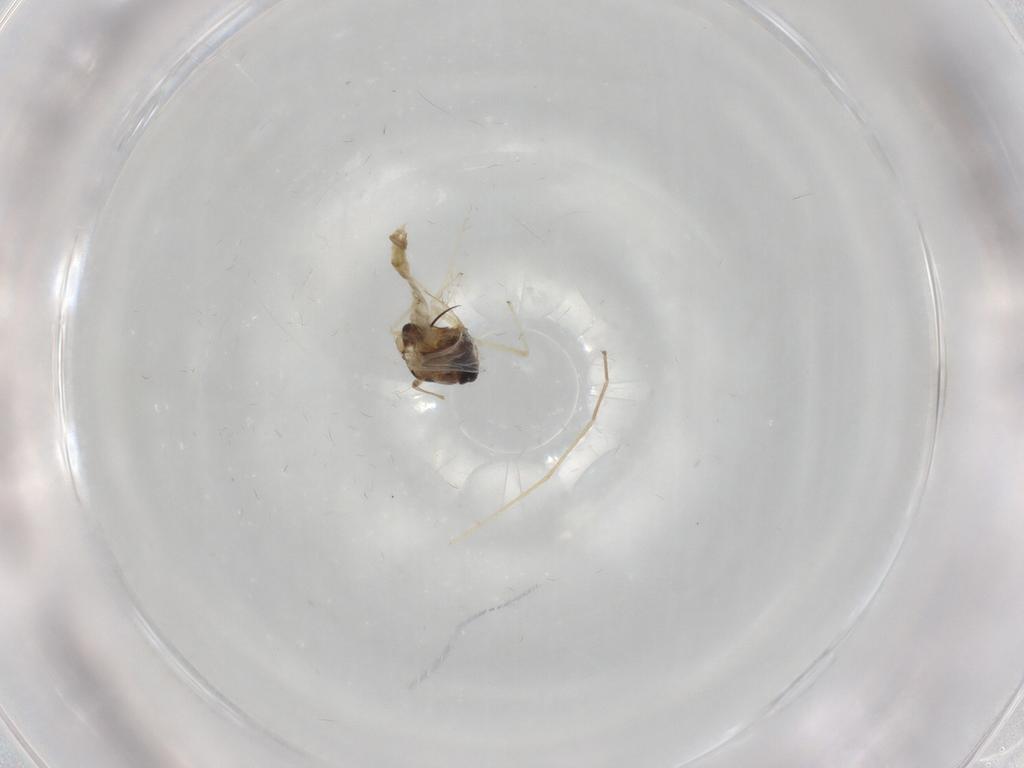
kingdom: Animalia
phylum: Arthropoda
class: Insecta
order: Diptera
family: Chironomidae
